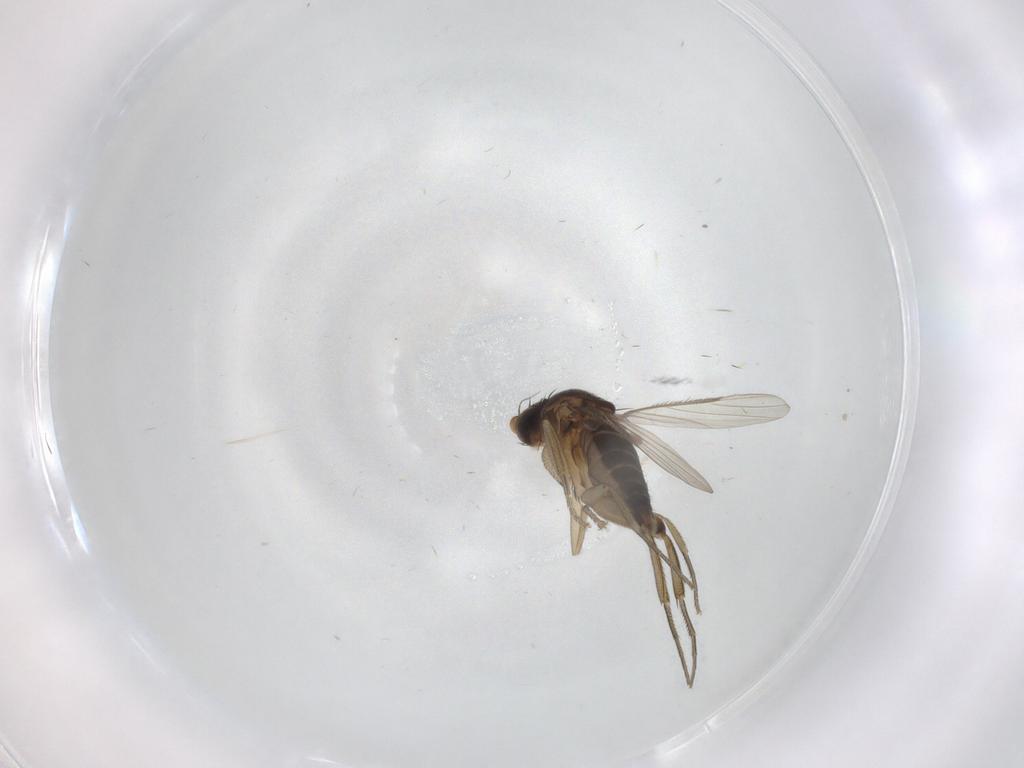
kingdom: Animalia
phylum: Arthropoda
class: Insecta
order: Diptera
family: Phoridae
